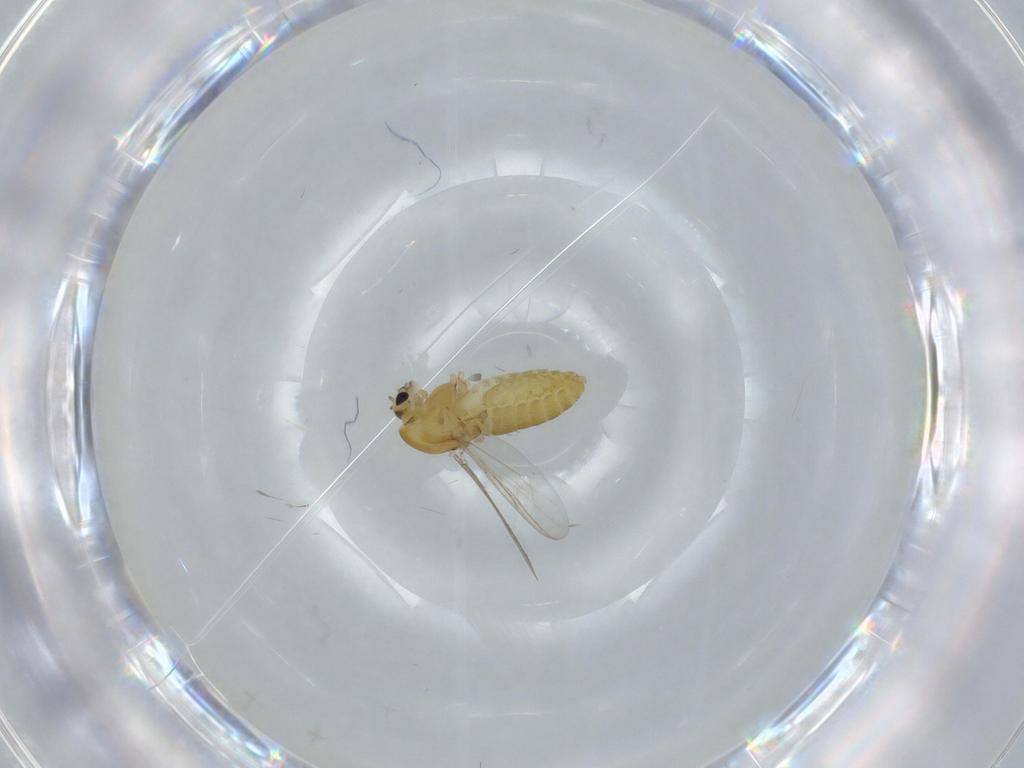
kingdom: Animalia
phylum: Arthropoda
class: Insecta
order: Diptera
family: Chironomidae
